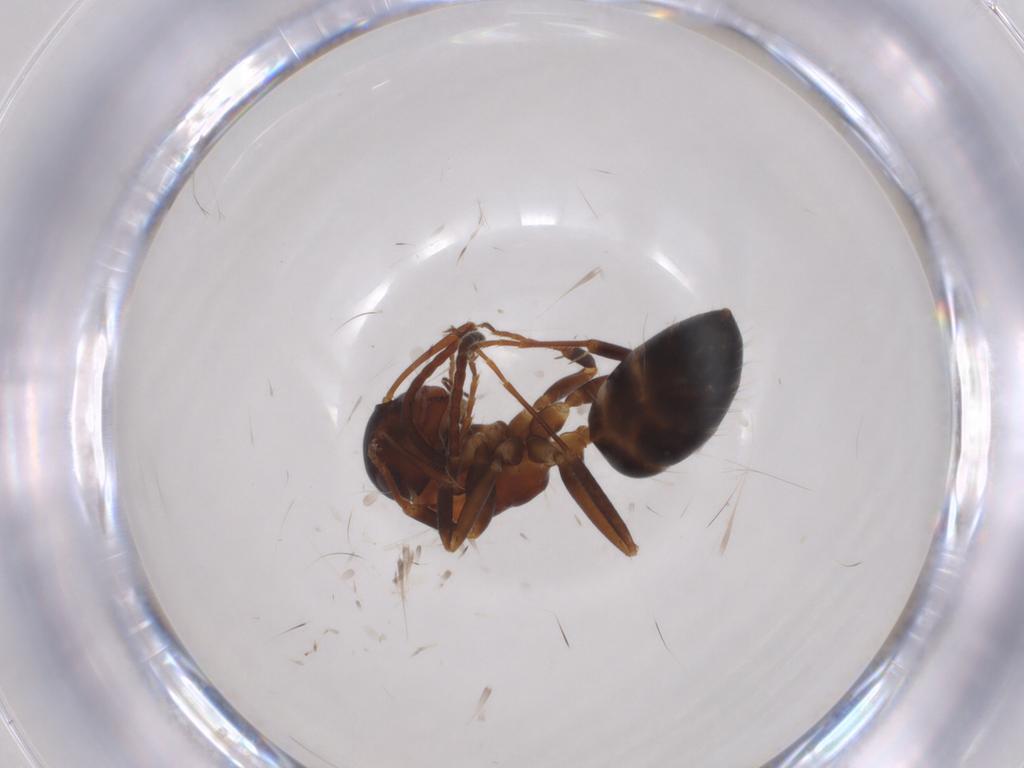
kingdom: Animalia
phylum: Arthropoda
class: Insecta
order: Hymenoptera
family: Formicidae
